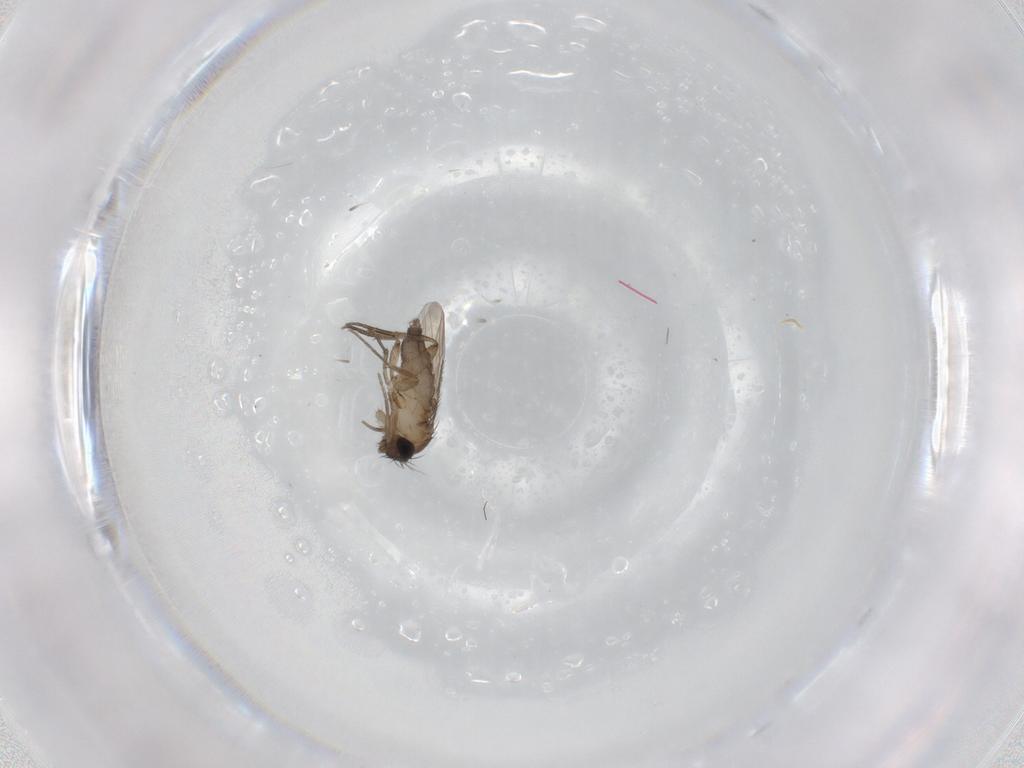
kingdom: Animalia
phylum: Arthropoda
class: Insecta
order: Diptera
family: Phoridae
